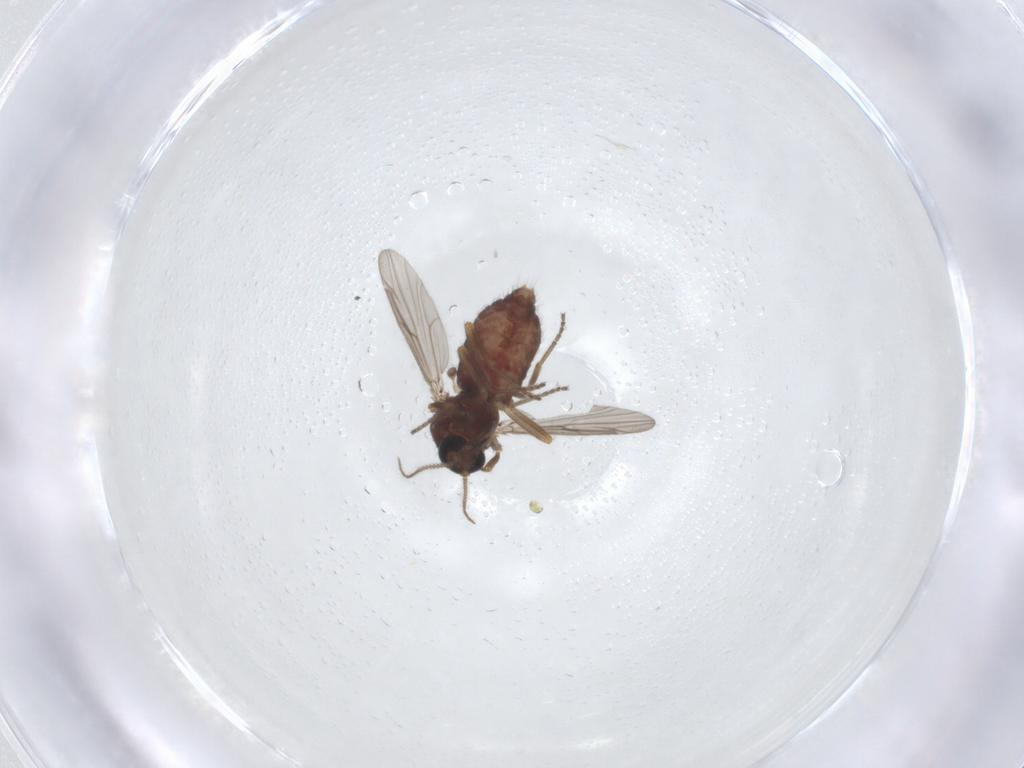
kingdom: Animalia
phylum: Arthropoda
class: Insecta
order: Diptera
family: Ceratopogonidae
